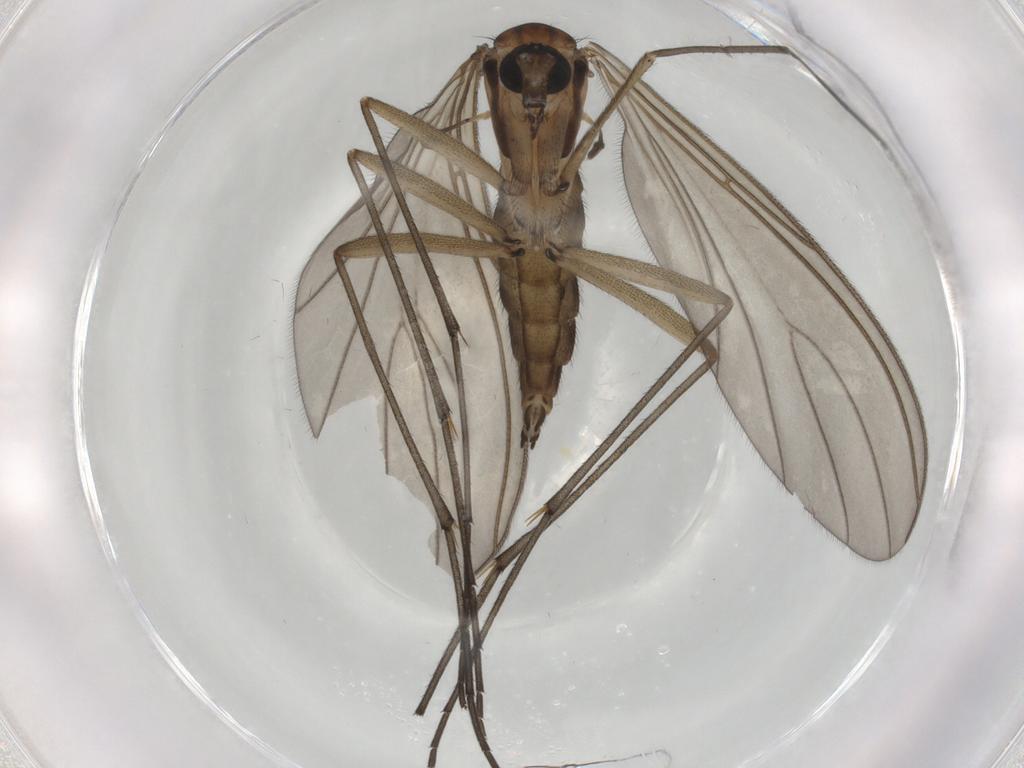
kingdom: Animalia
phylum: Arthropoda
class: Insecta
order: Diptera
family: Sciaridae
